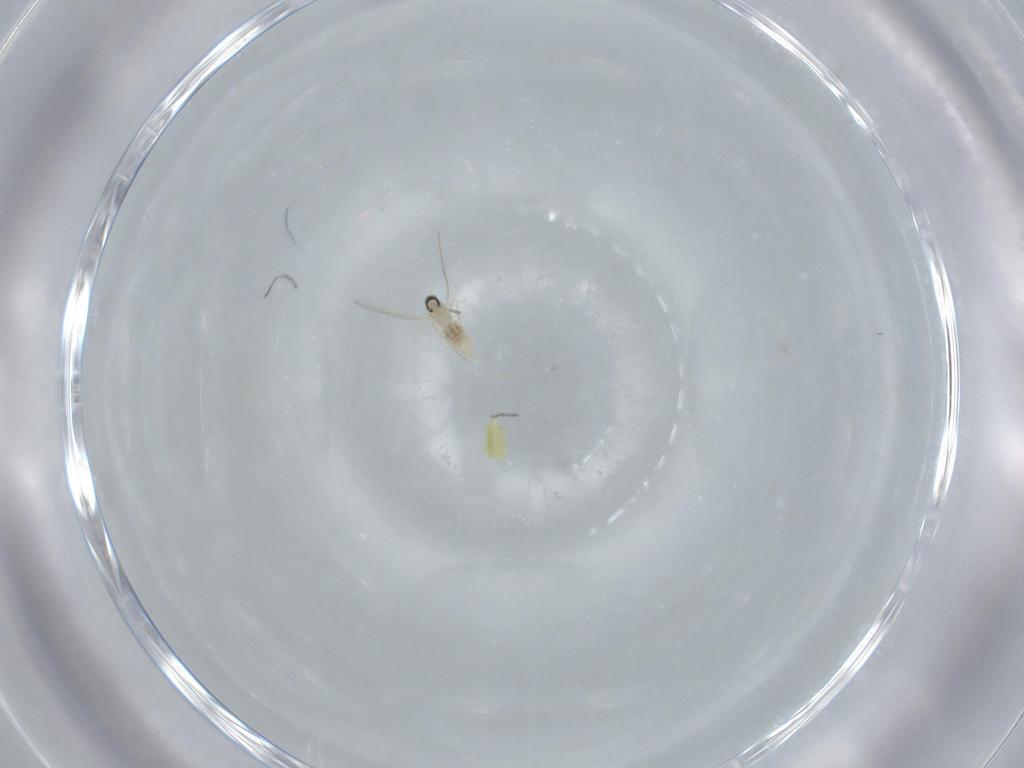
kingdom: Animalia
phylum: Arthropoda
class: Insecta
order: Diptera
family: Cecidomyiidae
